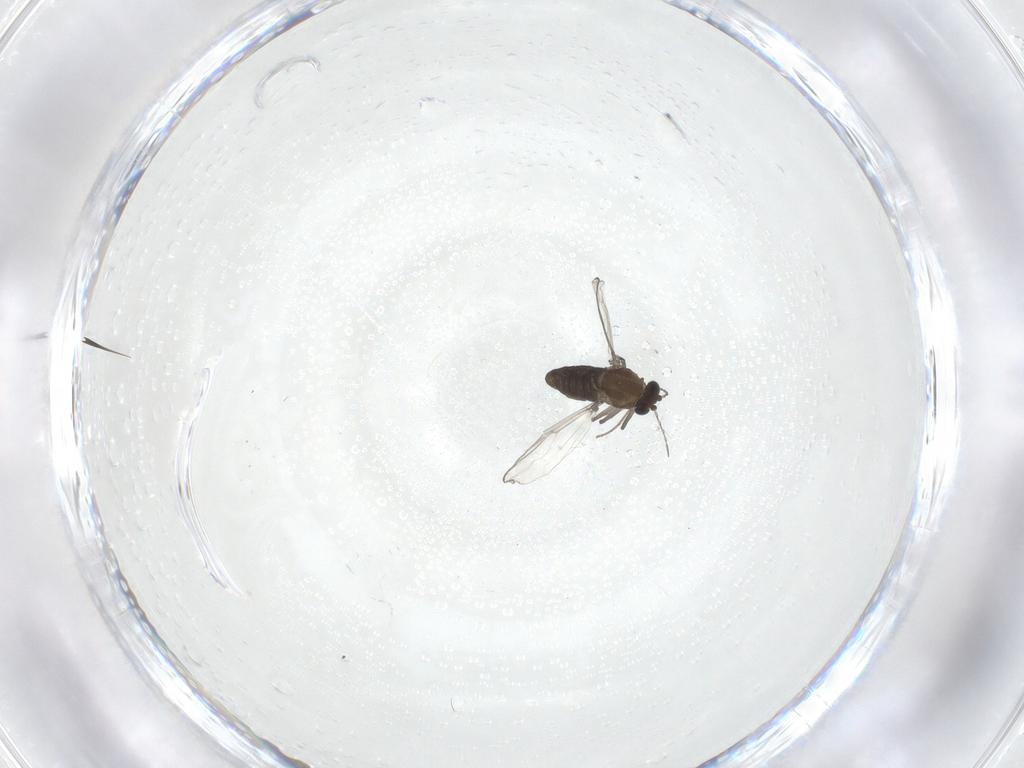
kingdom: Animalia
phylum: Arthropoda
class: Insecta
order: Diptera
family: Chironomidae
